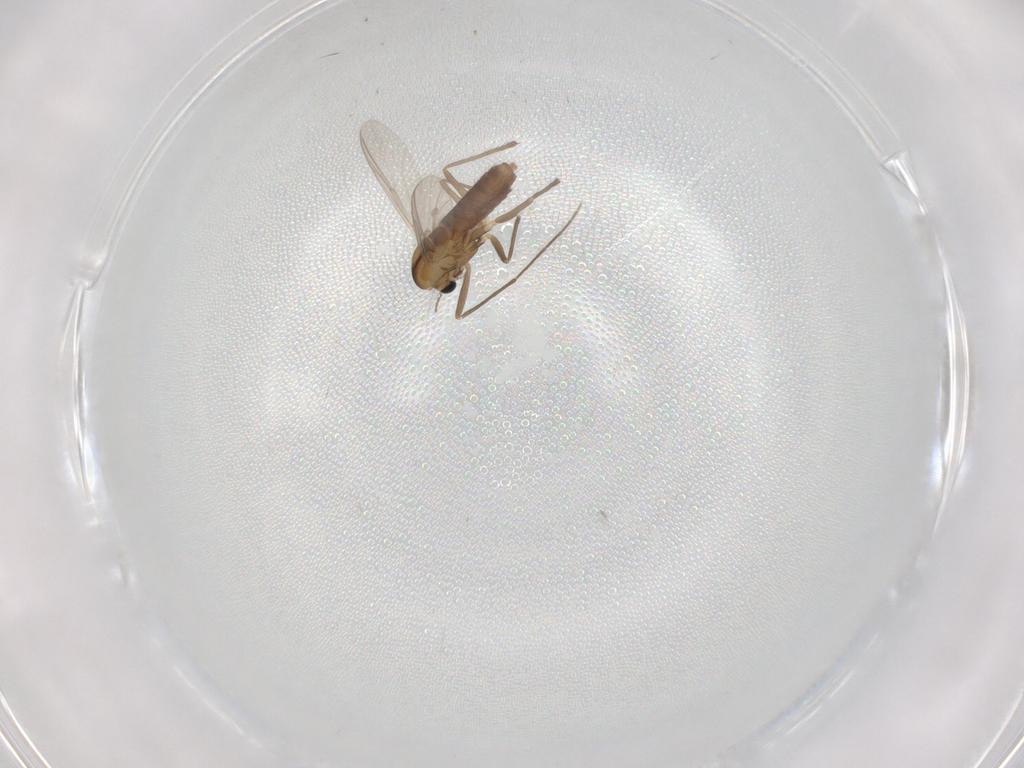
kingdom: Animalia
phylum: Arthropoda
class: Insecta
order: Diptera
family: Chironomidae
